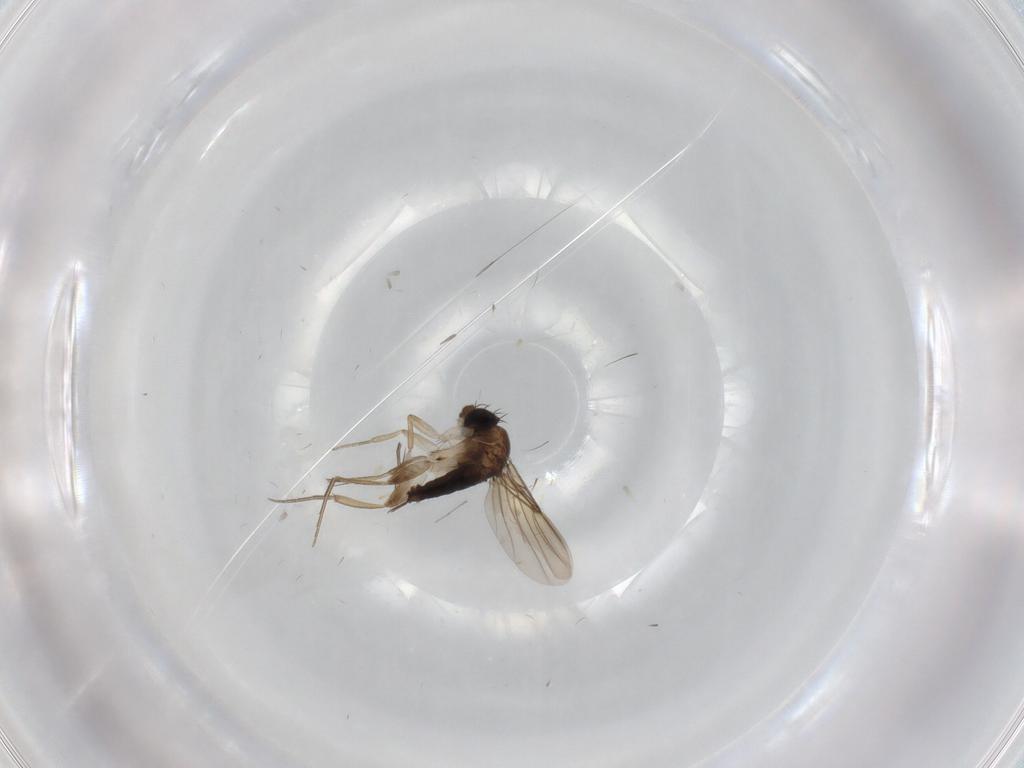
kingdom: Animalia
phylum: Arthropoda
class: Insecta
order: Diptera
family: Phoridae
